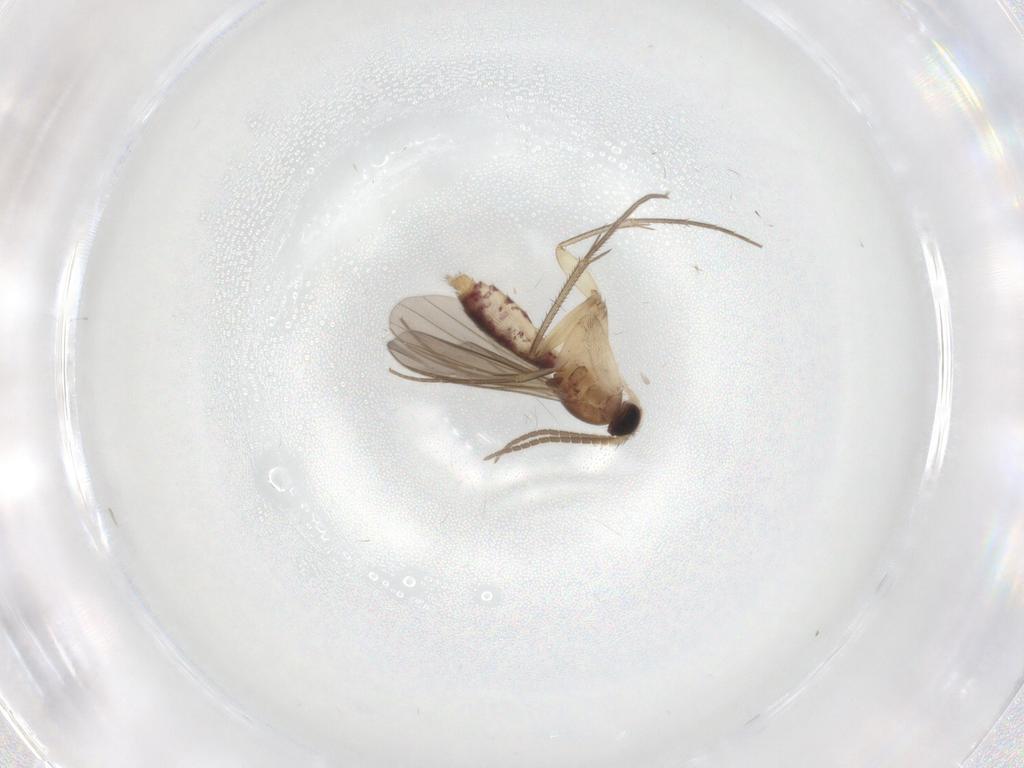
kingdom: Animalia
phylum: Arthropoda
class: Insecta
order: Diptera
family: Mycetophilidae
